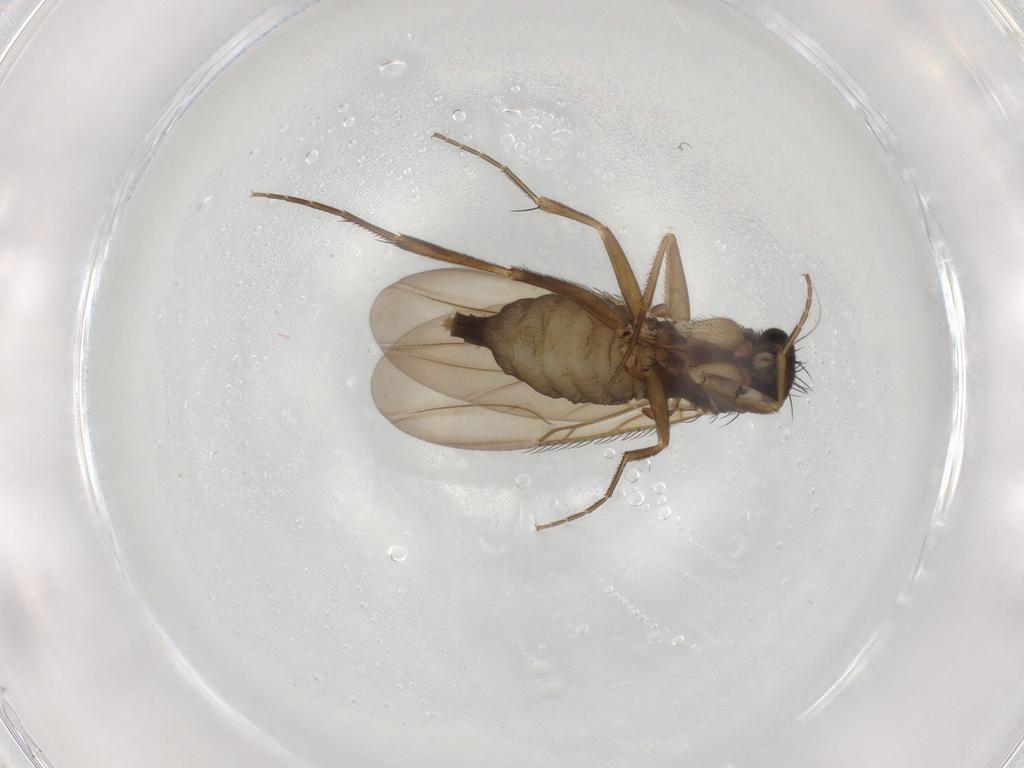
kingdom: Animalia
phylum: Arthropoda
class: Insecta
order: Diptera
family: Phoridae
